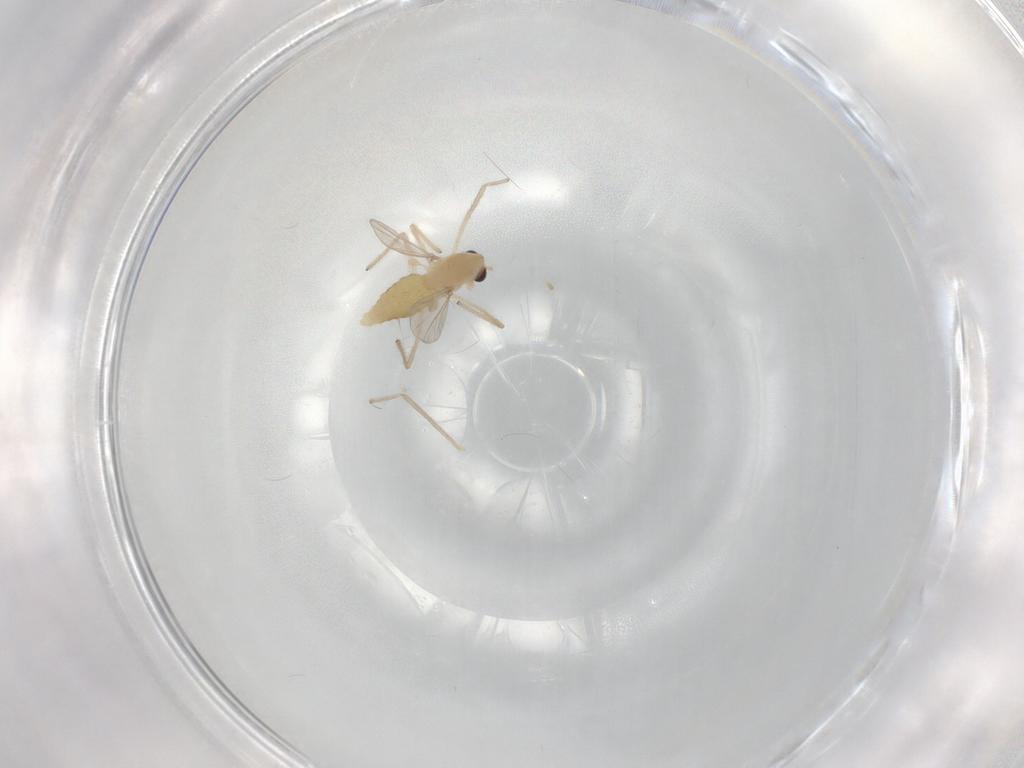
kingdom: Animalia
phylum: Arthropoda
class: Insecta
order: Diptera
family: Chironomidae
